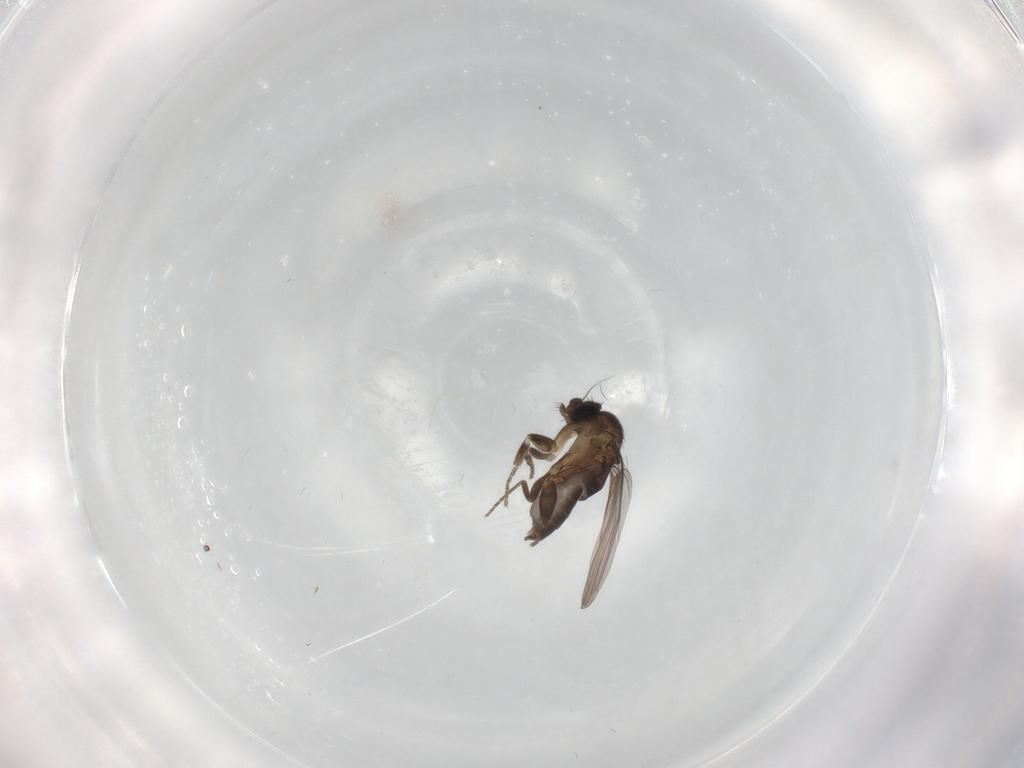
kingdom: Animalia
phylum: Arthropoda
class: Insecta
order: Diptera
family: Phoridae
